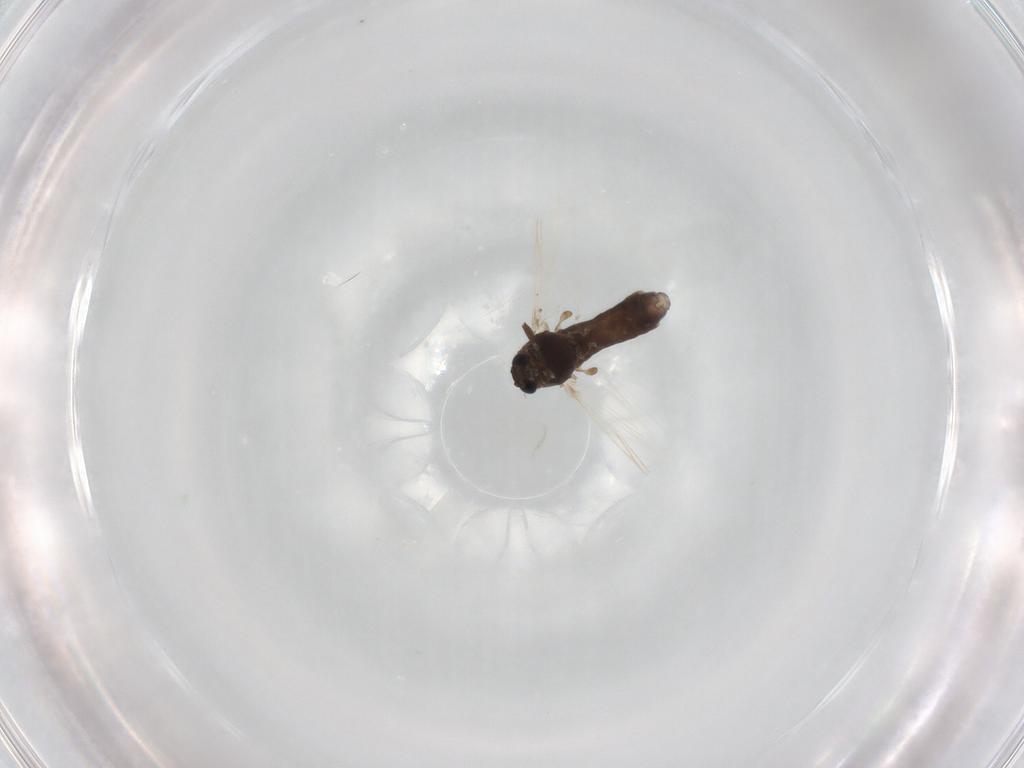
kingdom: Animalia
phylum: Arthropoda
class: Insecta
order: Diptera
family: Chironomidae
